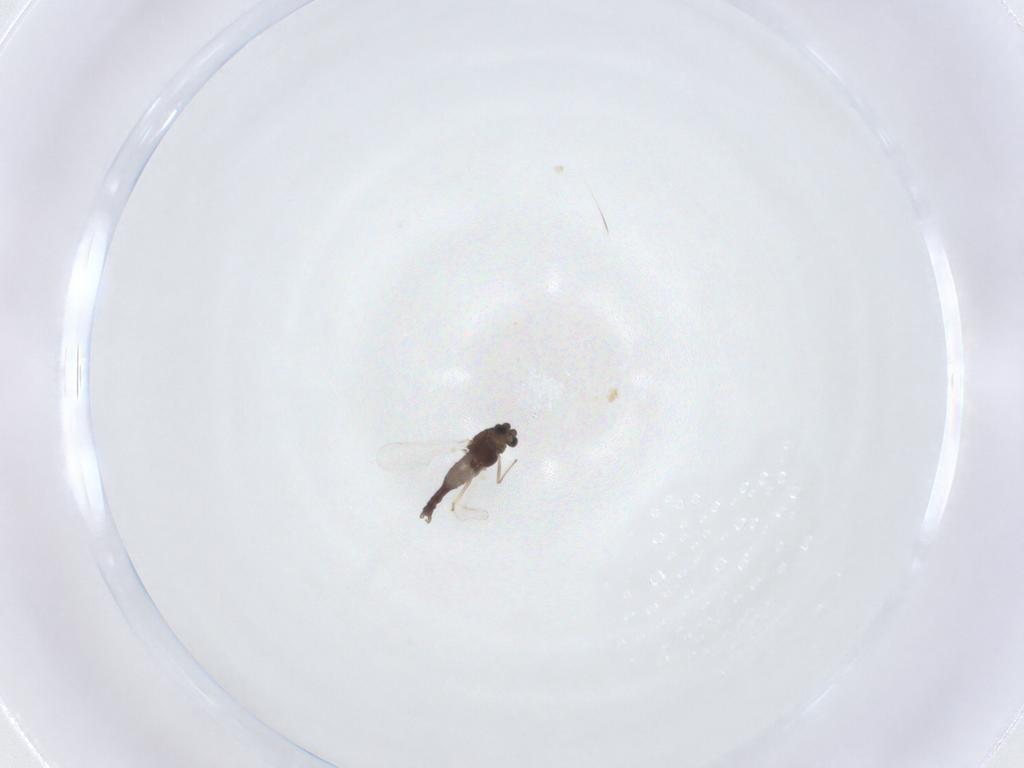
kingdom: Animalia
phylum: Arthropoda
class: Insecta
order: Diptera
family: Chironomidae
